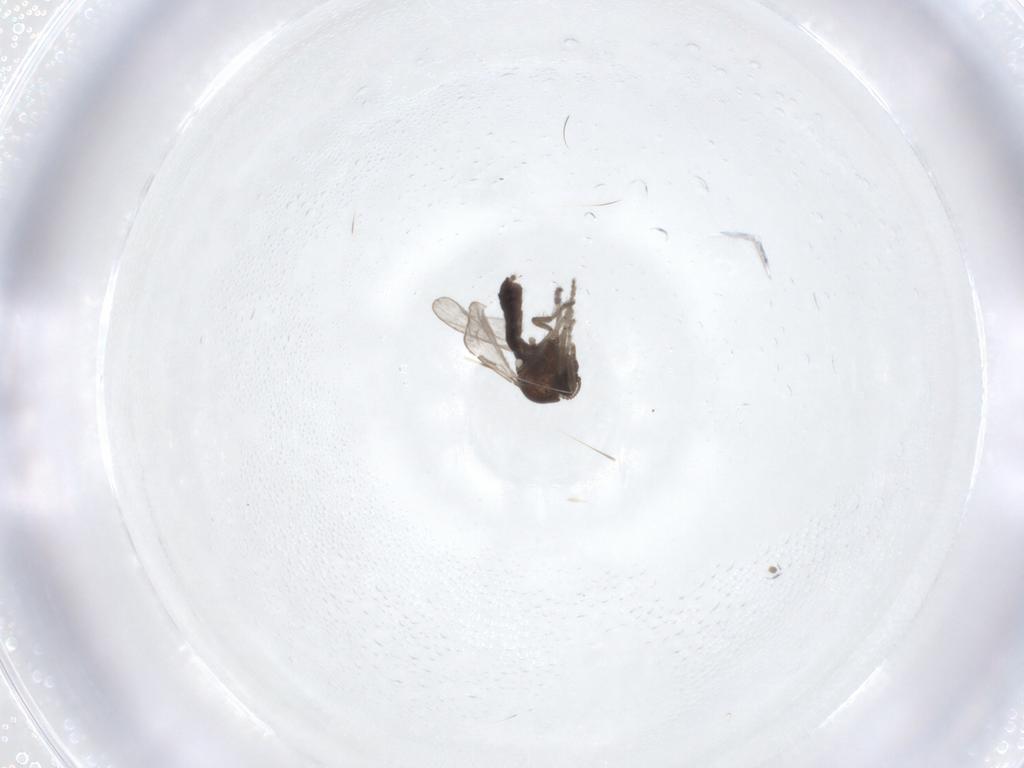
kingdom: Animalia
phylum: Arthropoda
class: Insecta
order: Diptera
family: Ceratopogonidae
